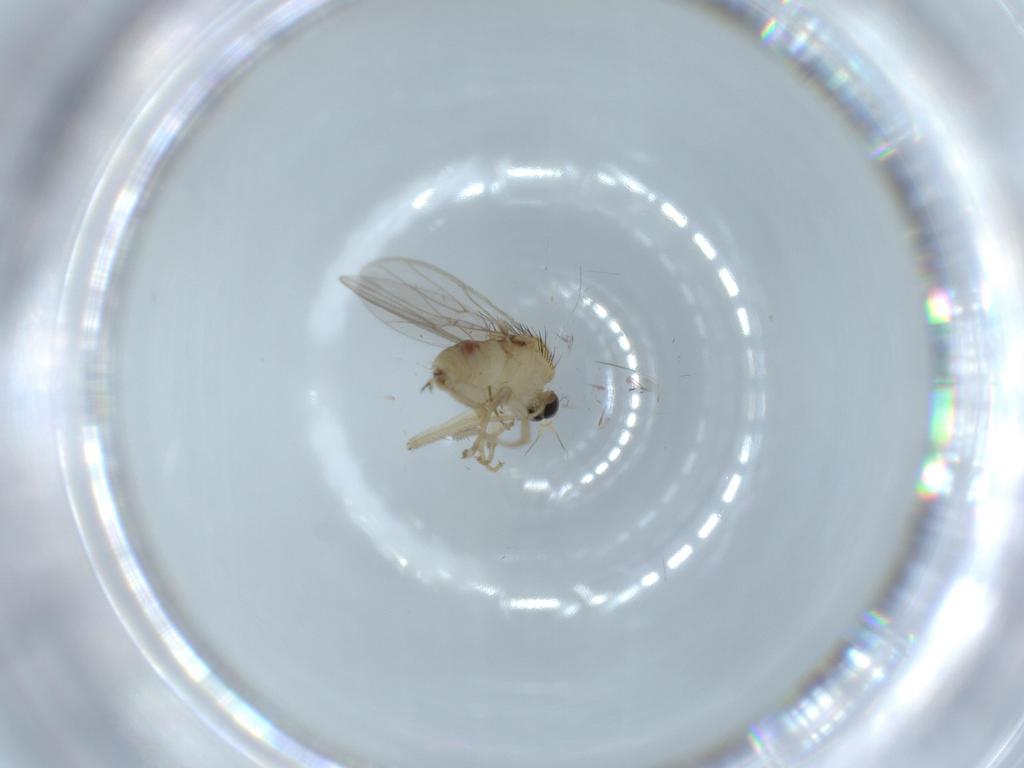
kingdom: Animalia
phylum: Arthropoda
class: Insecta
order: Diptera
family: Hybotidae
